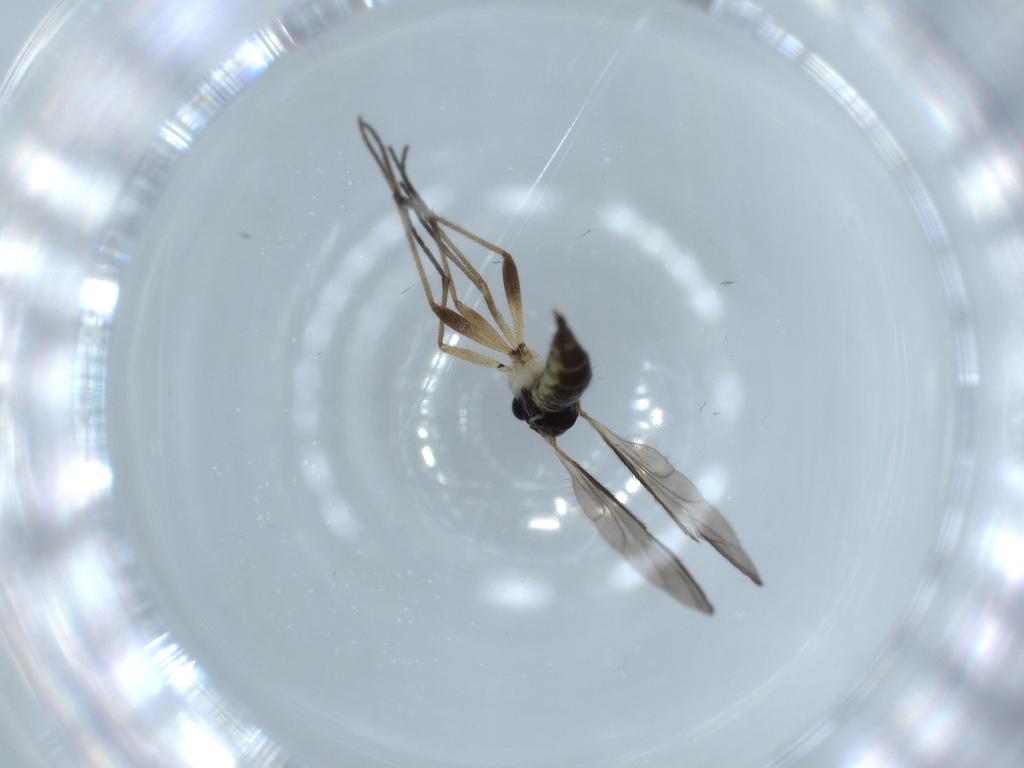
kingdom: Animalia
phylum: Arthropoda
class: Insecta
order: Diptera
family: Sciaridae
